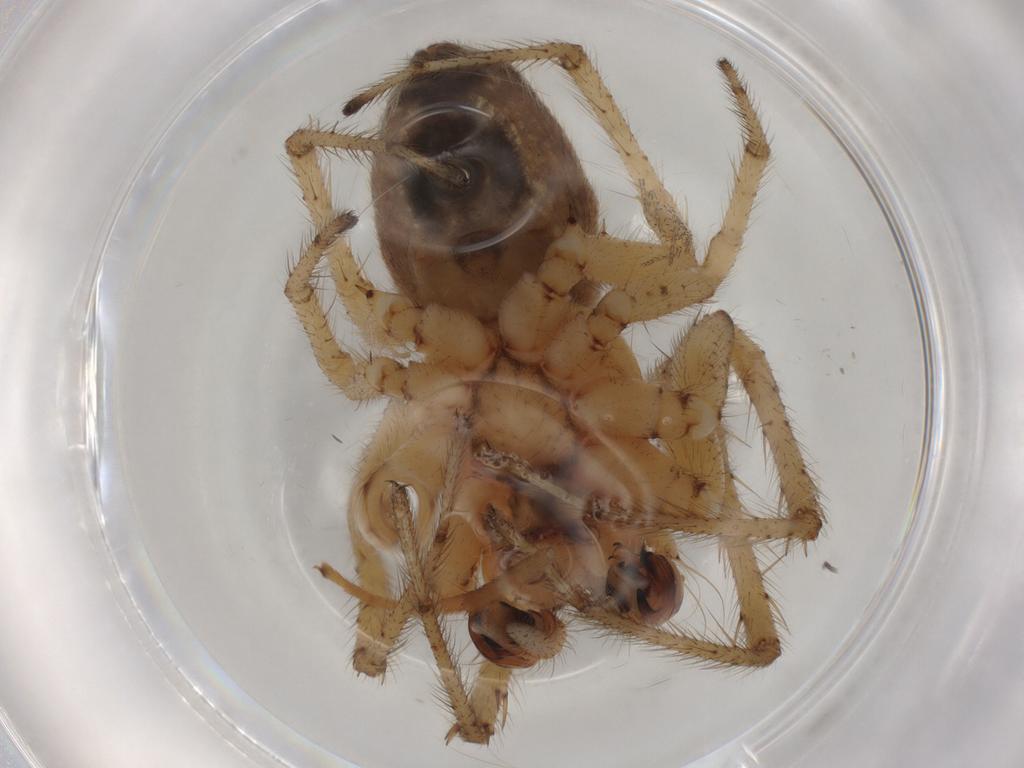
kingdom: Animalia
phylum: Arthropoda
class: Arachnida
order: Araneae
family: Araneidae
